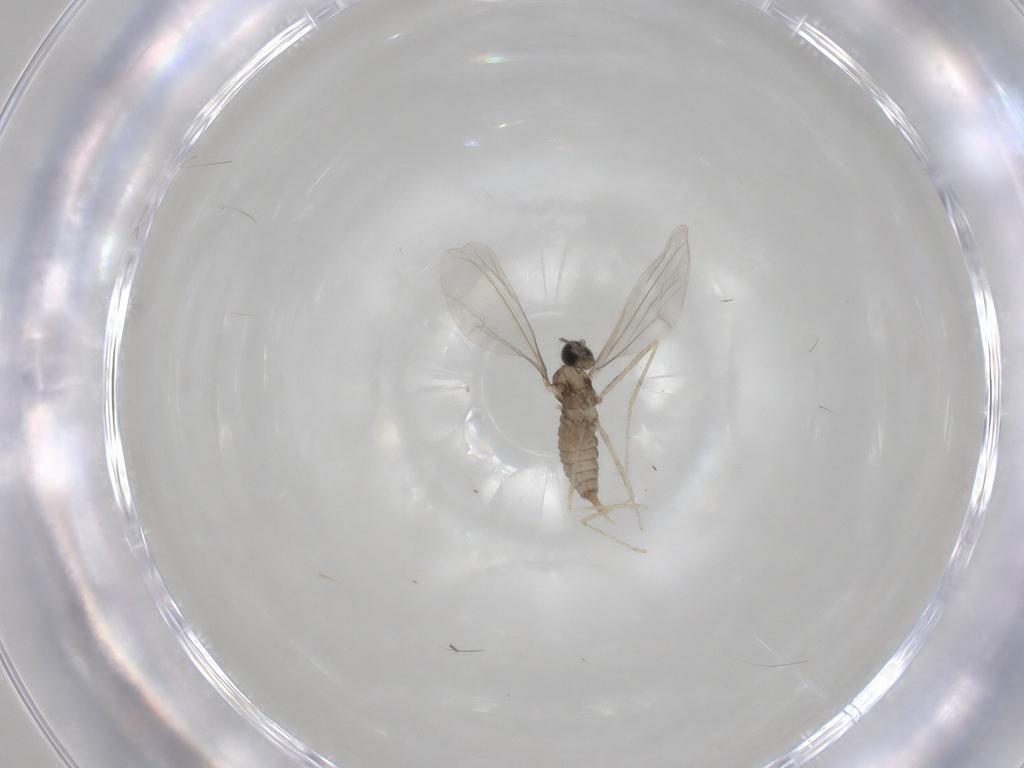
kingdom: Animalia
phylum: Arthropoda
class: Insecta
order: Diptera
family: Cecidomyiidae
